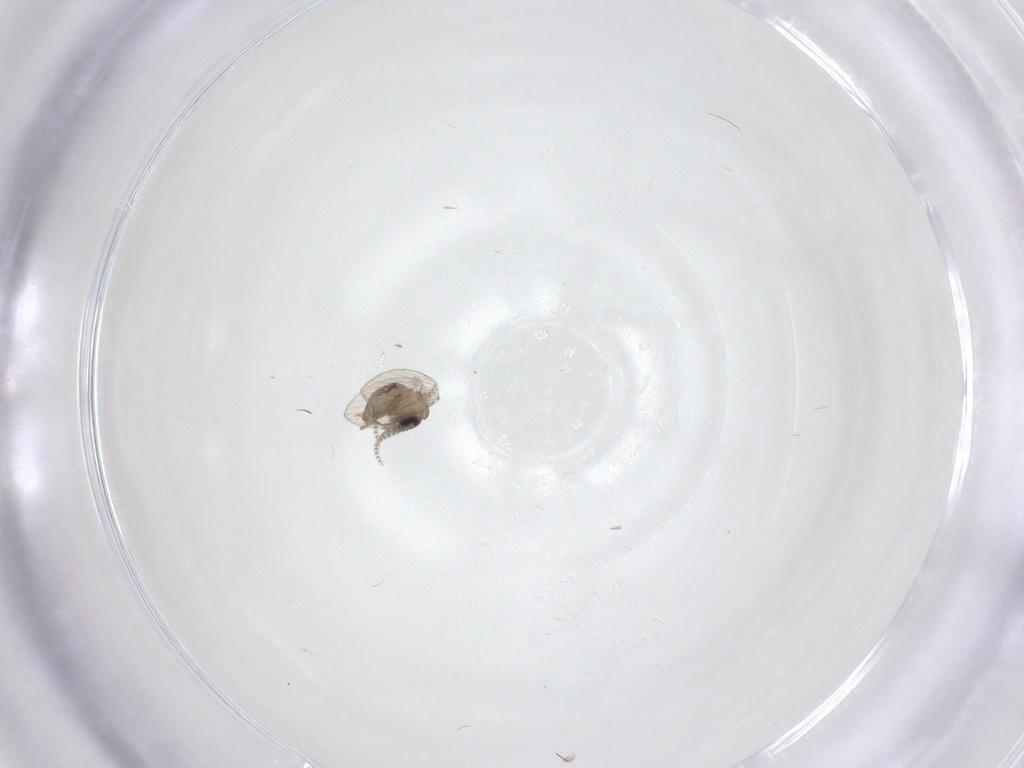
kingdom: Animalia
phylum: Arthropoda
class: Insecta
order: Diptera
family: Psychodidae
